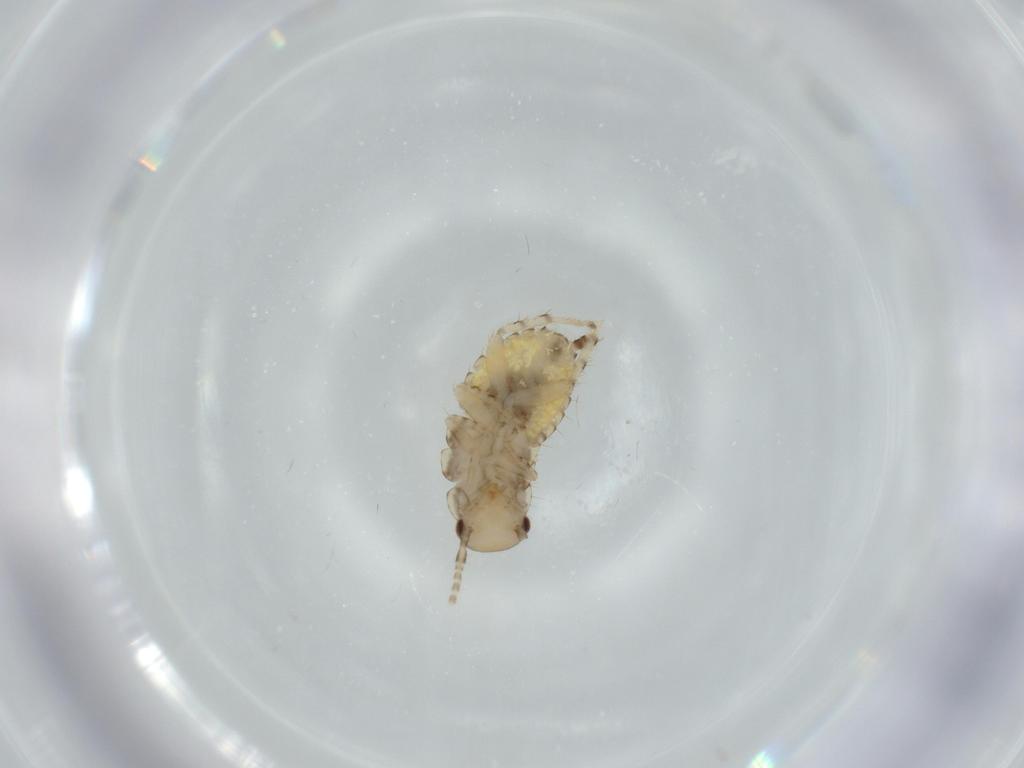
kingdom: Animalia
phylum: Arthropoda
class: Insecta
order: Blattodea
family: Ectobiidae
